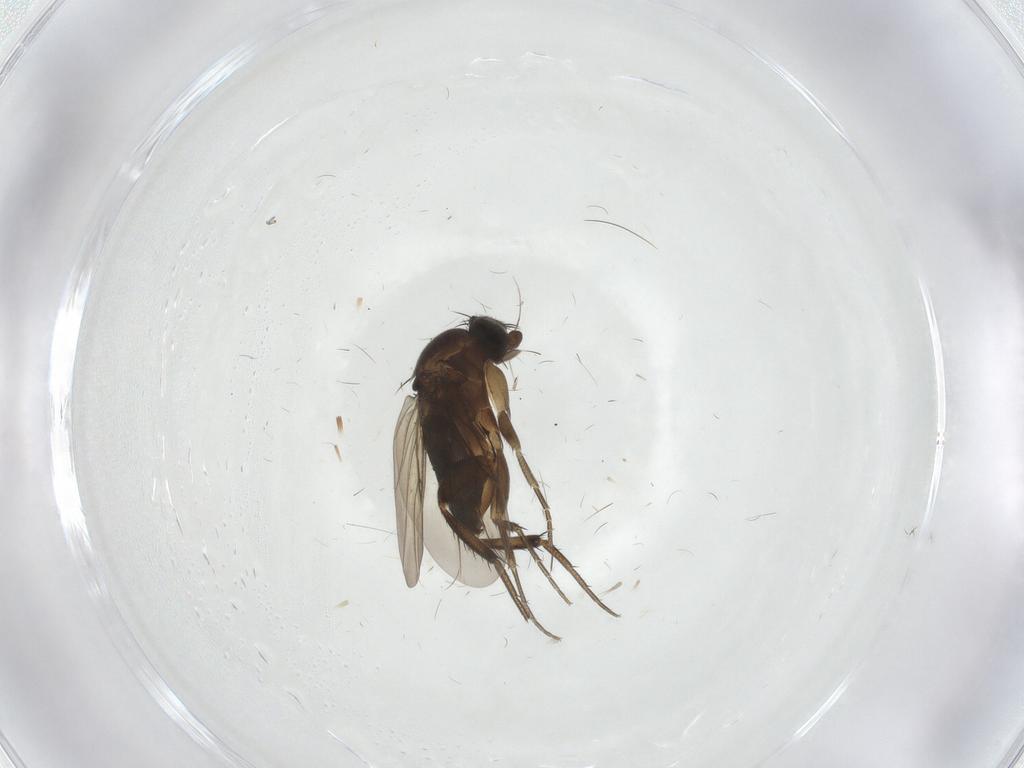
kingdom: Animalia
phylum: Arthropoda
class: Insecta
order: Diptera
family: Phoridae
